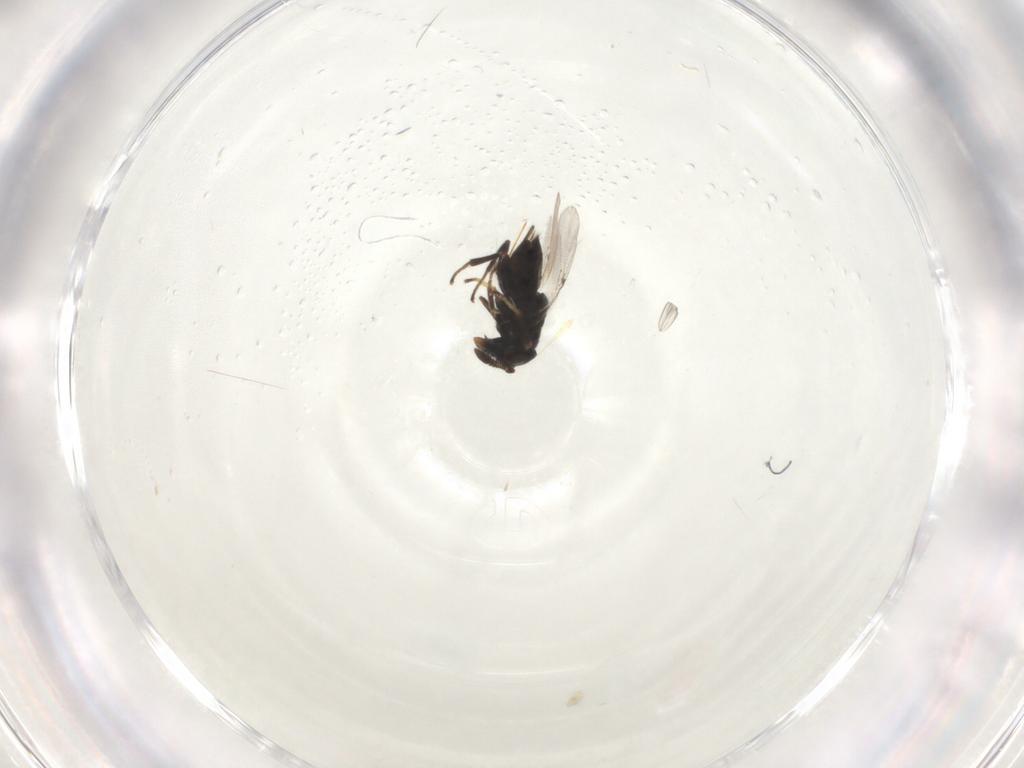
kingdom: Animalia
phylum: Arthropoda
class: Insecta
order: Hymenoptera
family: Encyrtidae
